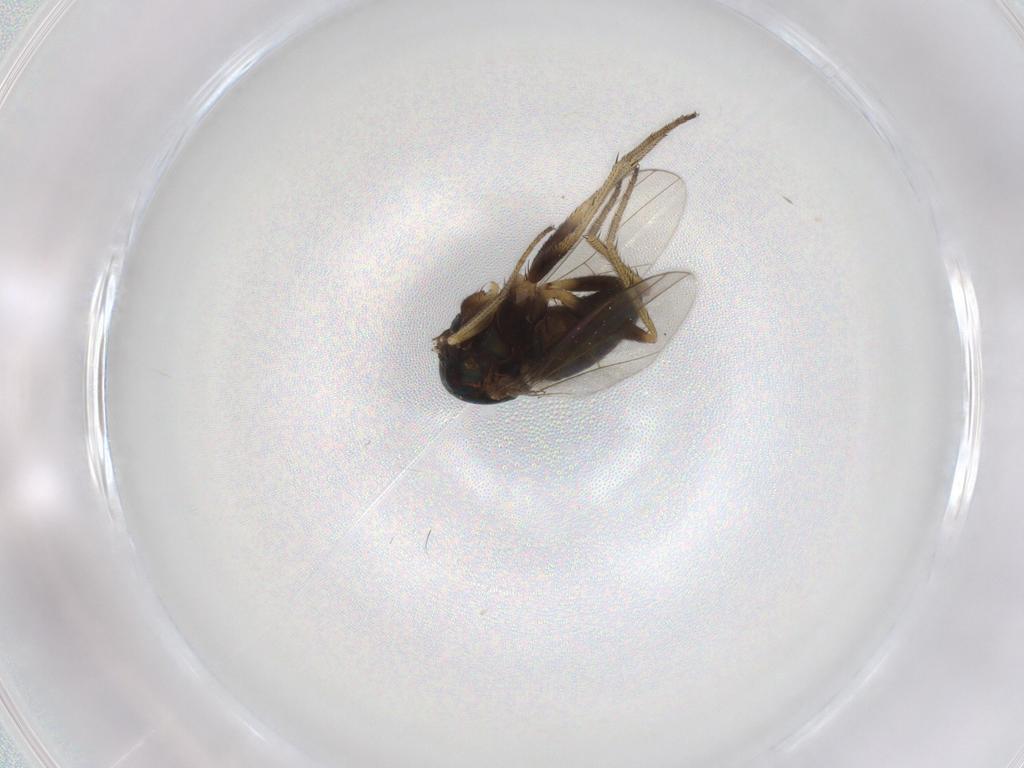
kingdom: Animalia
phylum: Arthropoda
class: Insecta
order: Diptera
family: Dolichopodidae
